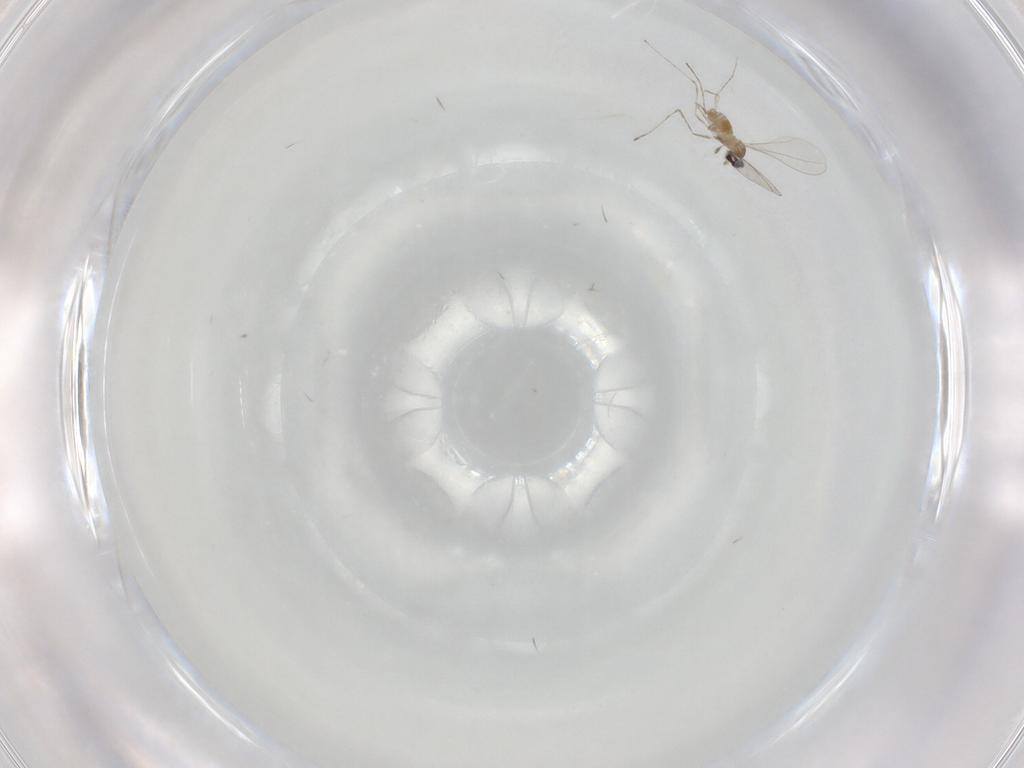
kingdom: Animalia
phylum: Arthropoda
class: Insecta
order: Diptera
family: Cecidomyiidae
